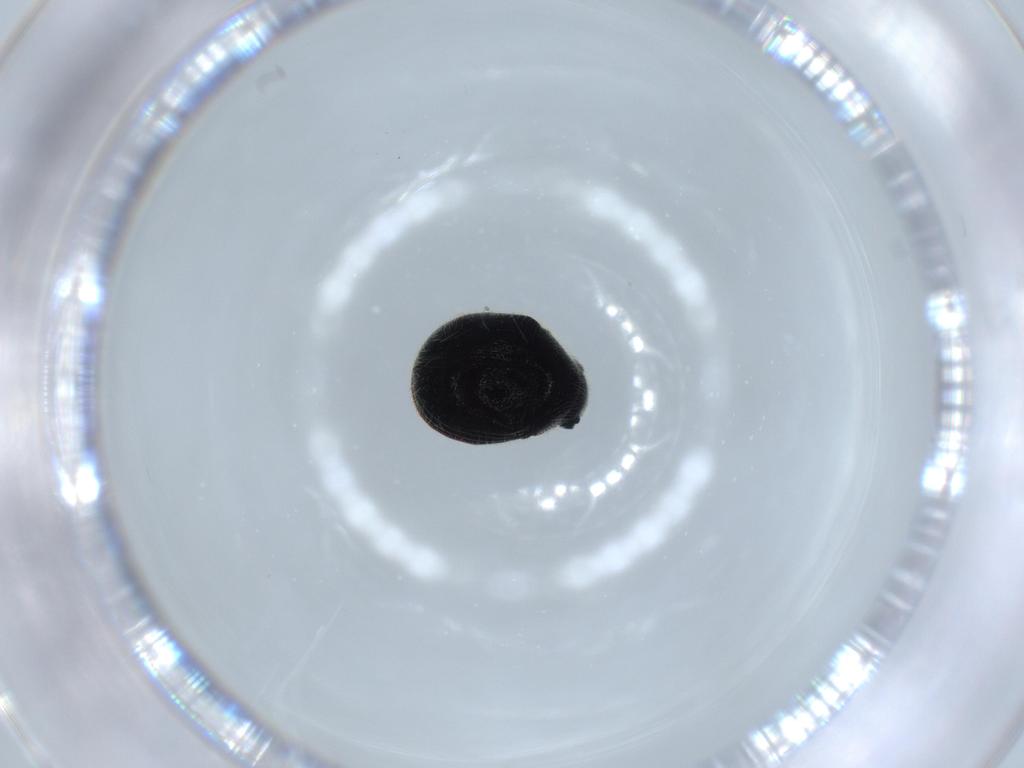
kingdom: Animalia
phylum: Arthropoda
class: Insecta
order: Coleoptera
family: Ptinidae
